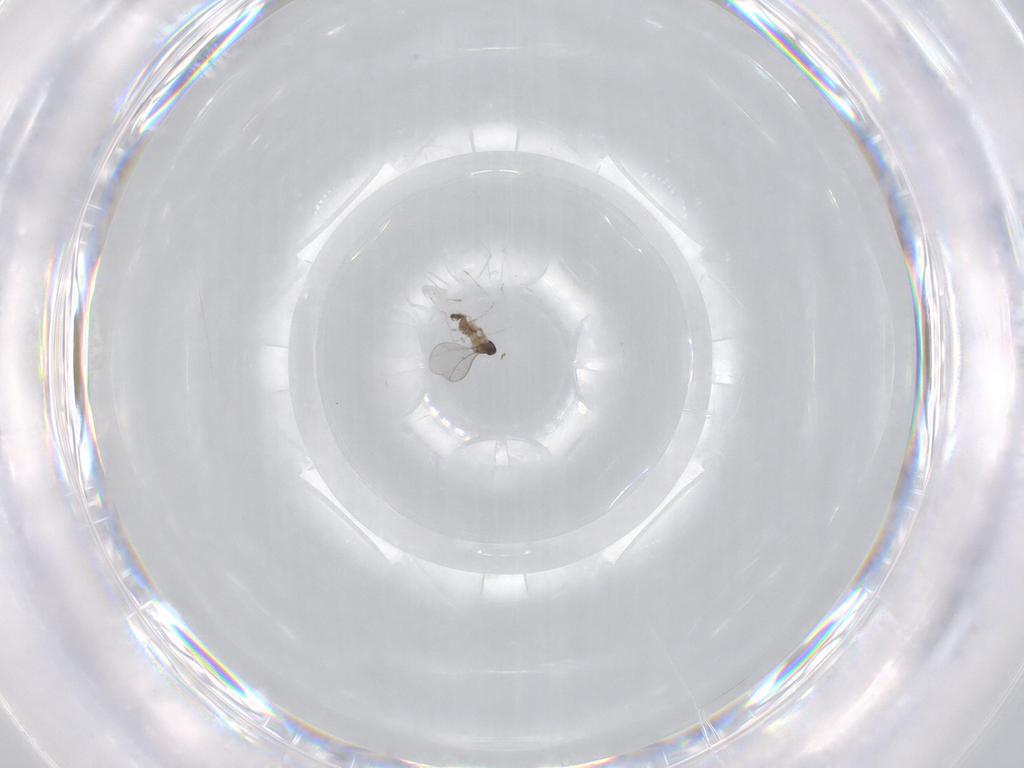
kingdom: Animalia
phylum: Arthropoda
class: Insecta
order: Diptera
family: Cecidomyiidae
